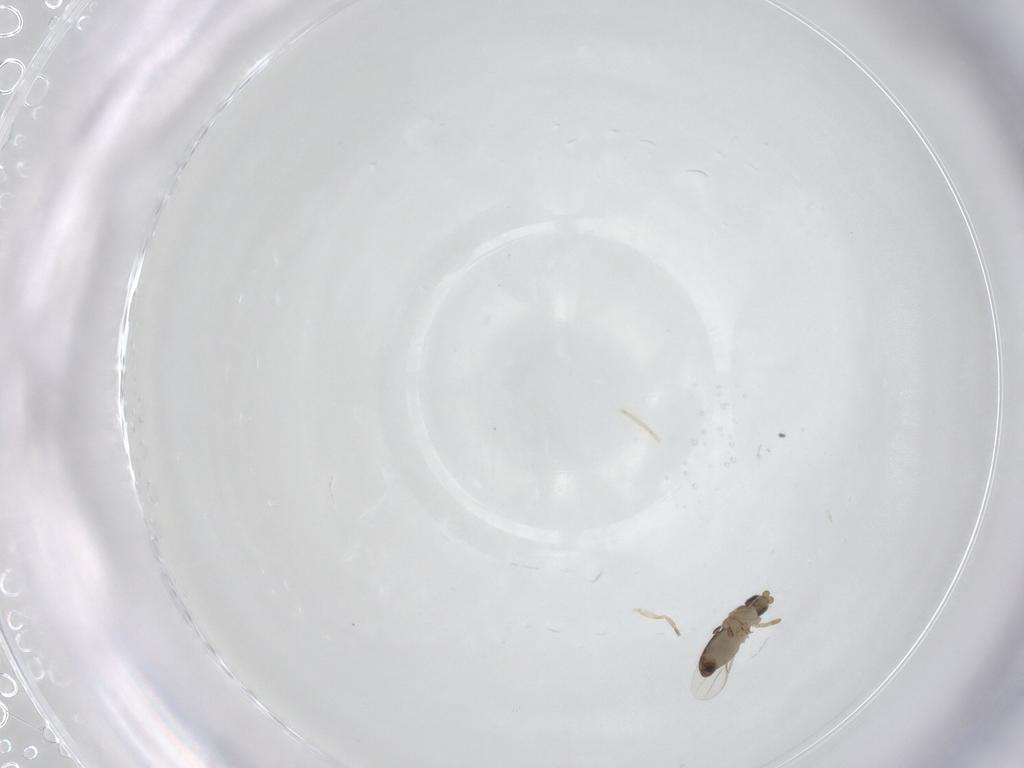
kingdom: Animalia
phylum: Arthropoda
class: Insecta
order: Diptera
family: Phoridae
